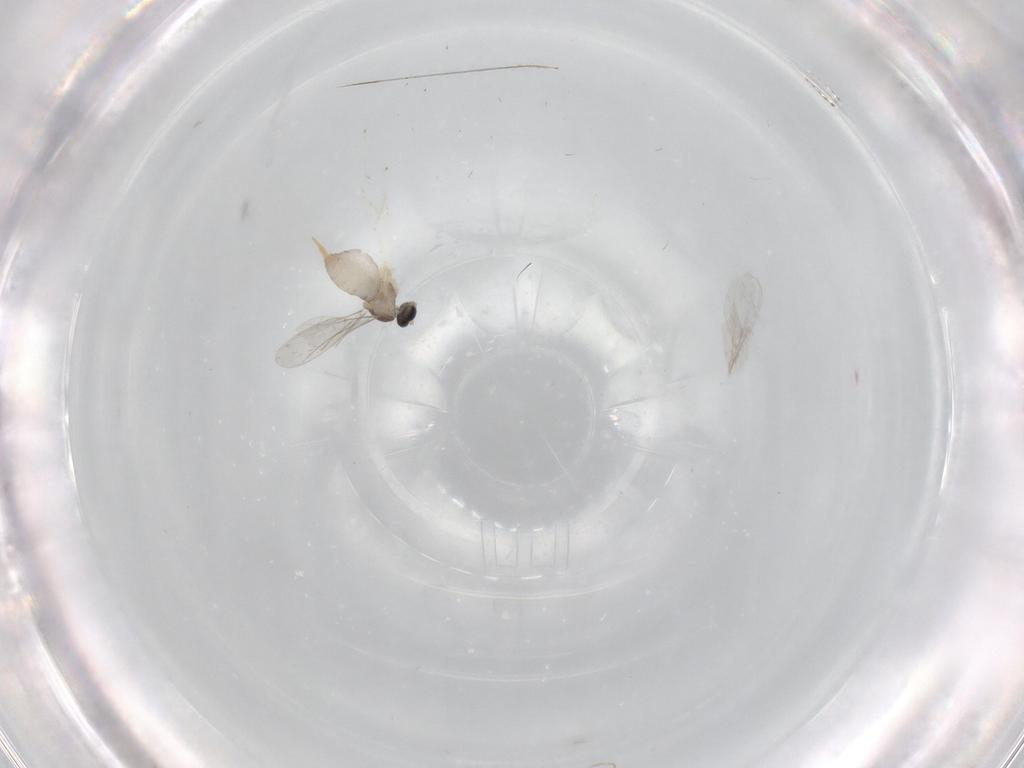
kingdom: Animalia
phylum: Arthropoda
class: Insecta
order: Diptera
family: Cecidomyiidae
